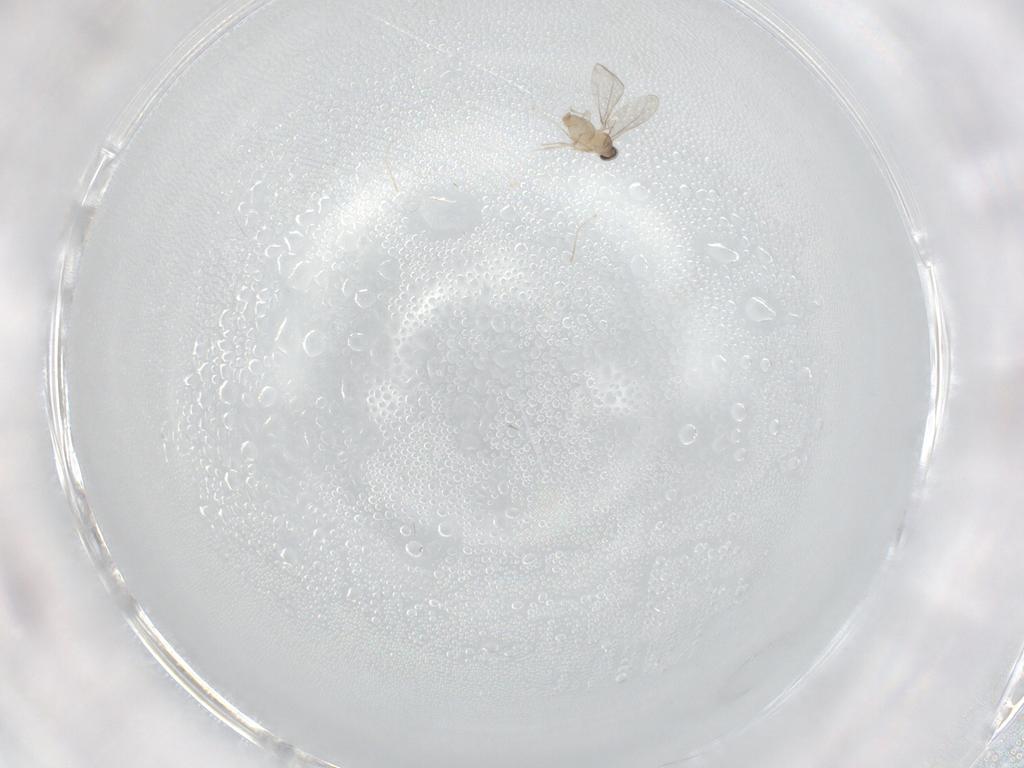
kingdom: Animalia
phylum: Arthropoda
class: Insecta
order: Diptera
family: Cecidomyiidae
